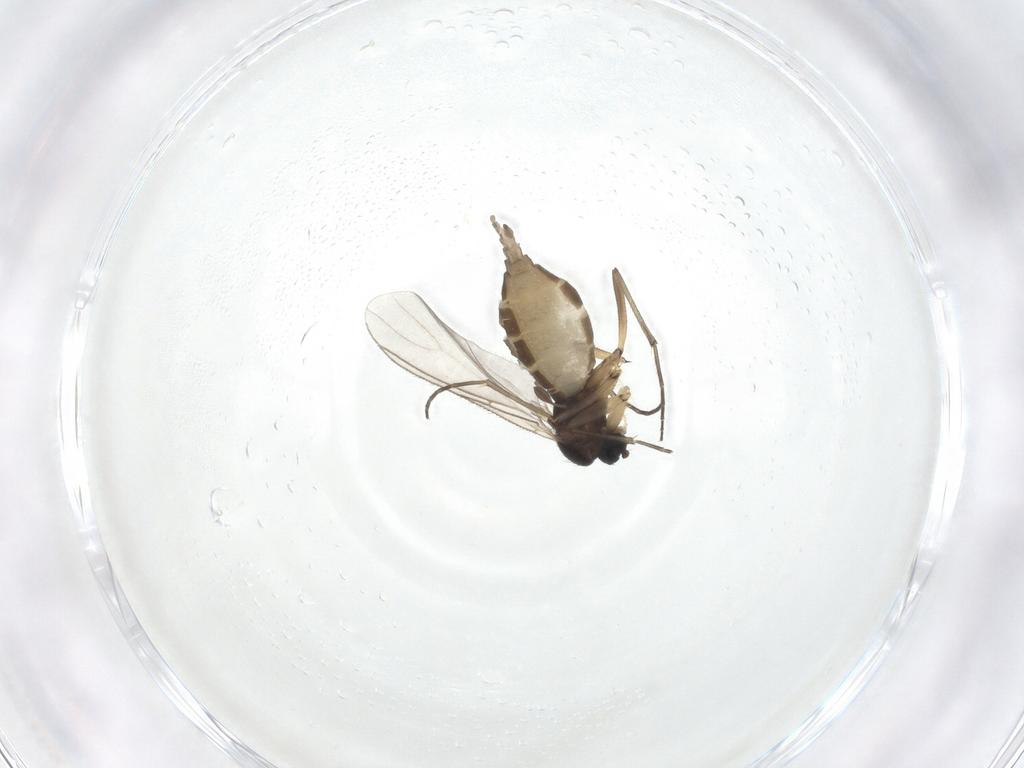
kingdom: Animalia
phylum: Arthropoda
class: Insecta
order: Diptera
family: Sciaridae
